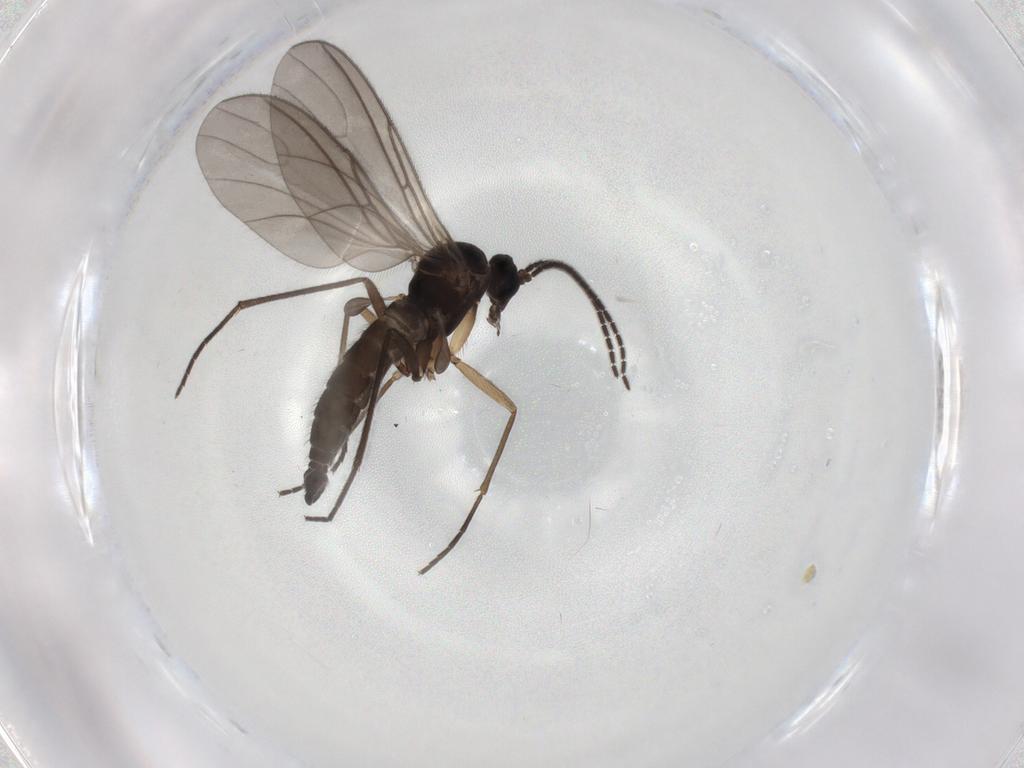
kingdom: Animalia
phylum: Arthropoda
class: Insecta
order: Diptera
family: Sciaridae
